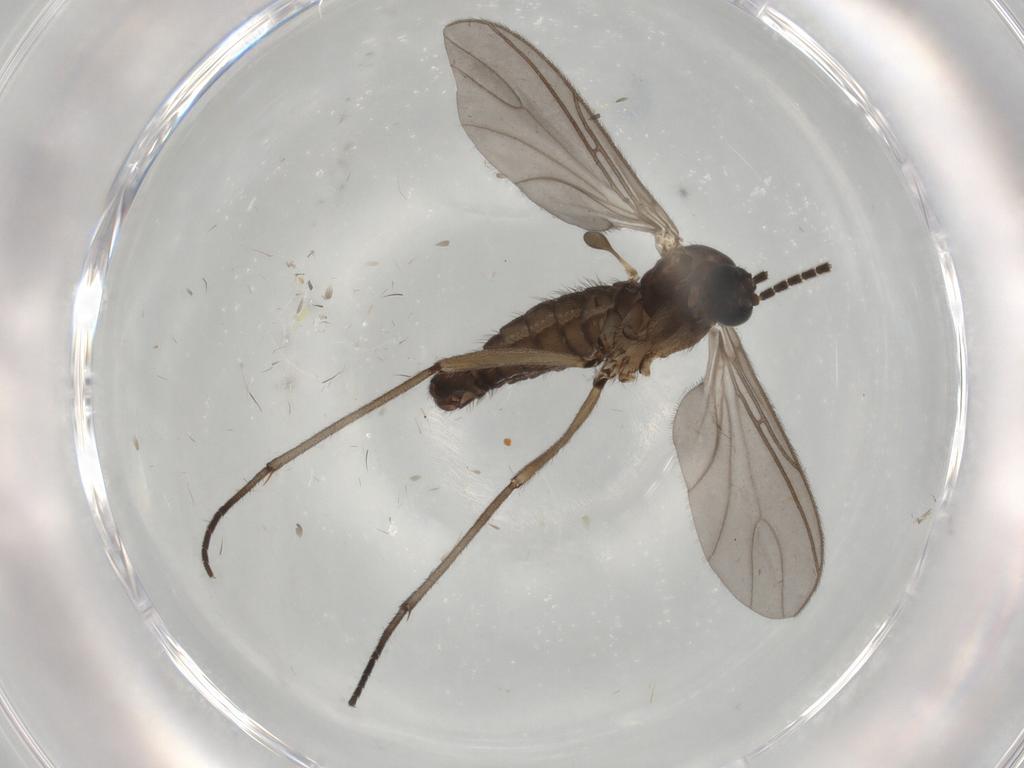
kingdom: Animalia
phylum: Arthropoda
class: Insecta
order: Diptera
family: Sciaridae
